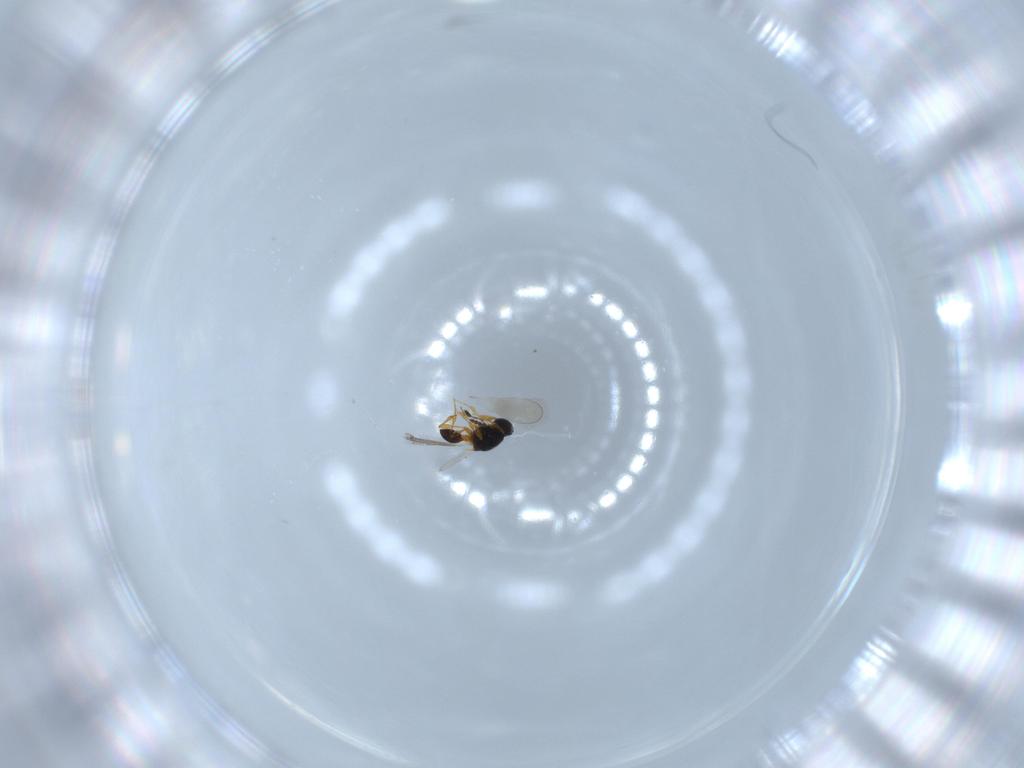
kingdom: Animalia
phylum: Arthropoda
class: Insecta
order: Hymenoptera
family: Platygastridae
